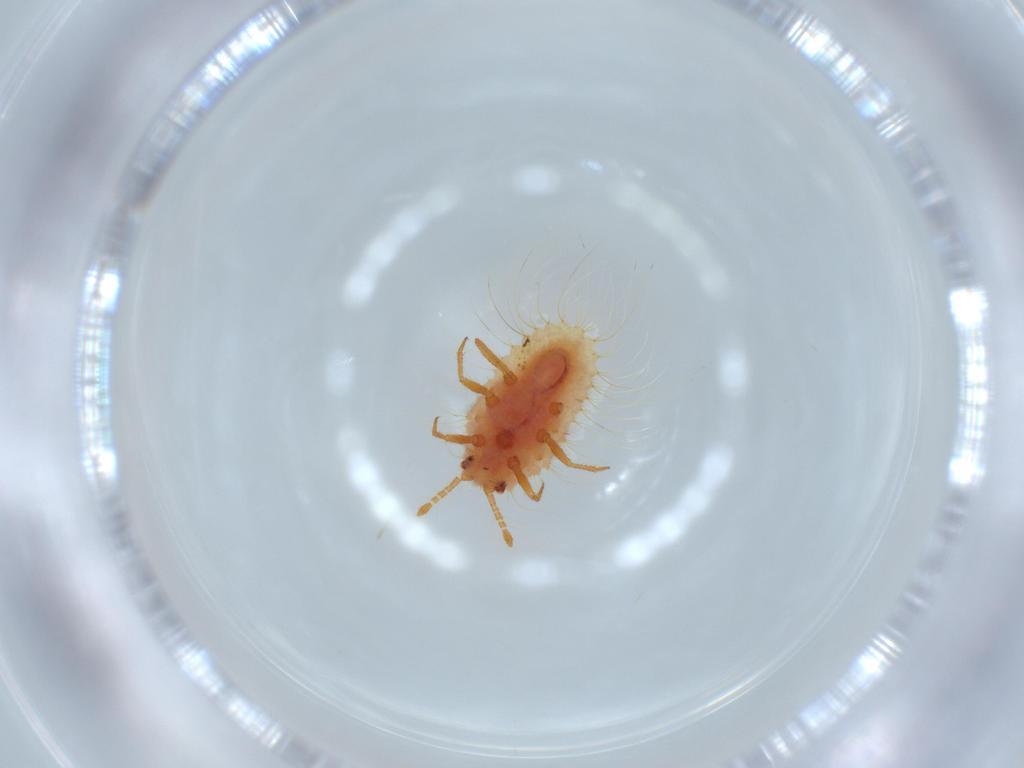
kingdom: Animalia
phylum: Arthropoda
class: Insecta
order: Hemiptera
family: Coccoidea_incertae_sedis
